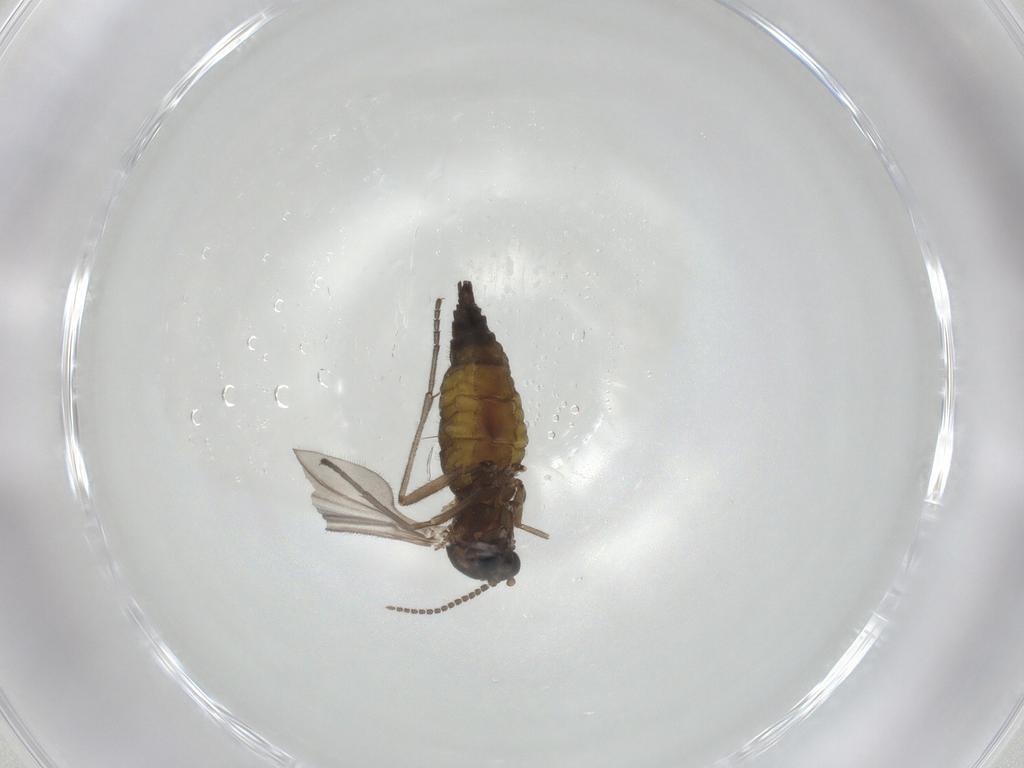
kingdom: Animalia
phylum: Arthropoda
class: Insecta
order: Diptera
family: Sciaridae
